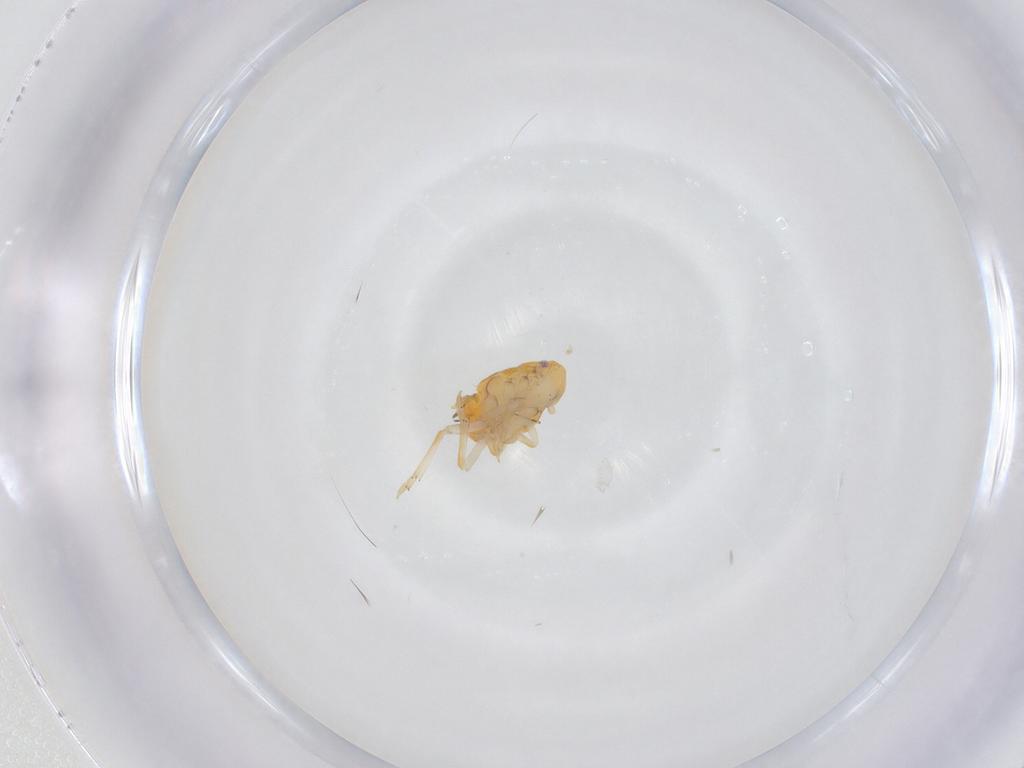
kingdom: Animalia
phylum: Arthropoda
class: Insecta
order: Hemiptera
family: Ricaniidae
